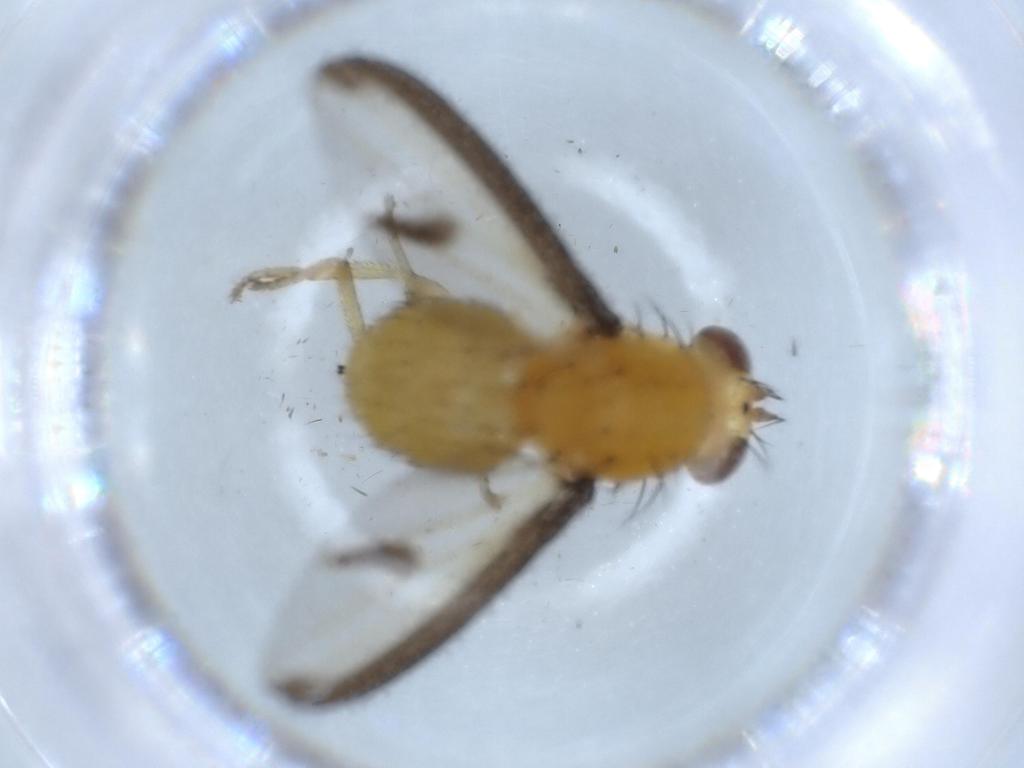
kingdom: Animalia
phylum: Arthropoda
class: Insecta
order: Diptera
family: Lauxaniidae
